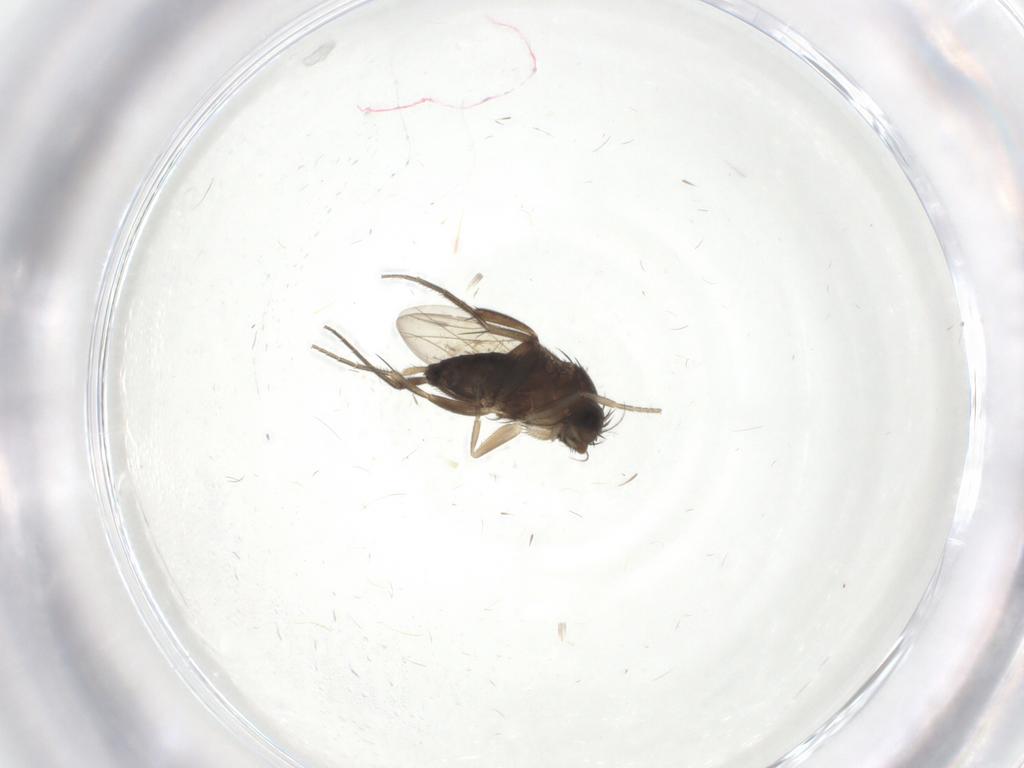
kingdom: Animalia
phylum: Arthropoda
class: Insecta
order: Diptera
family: Phoridae
